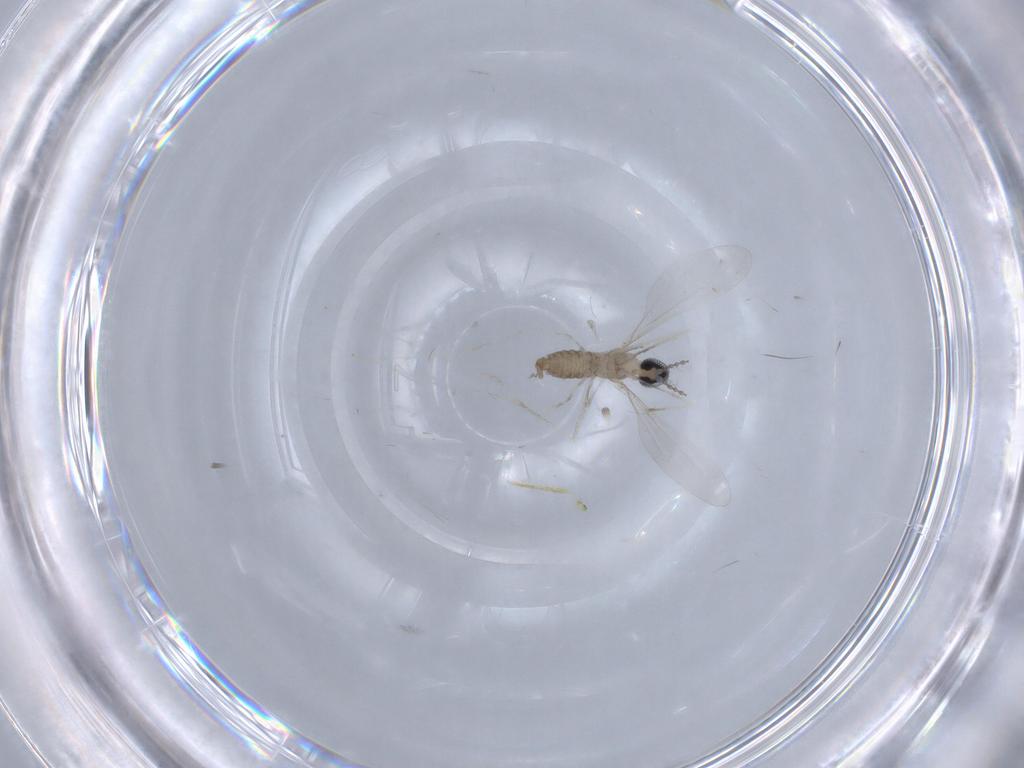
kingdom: Animalia
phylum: Arthropoda
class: Insecta
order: Diptera
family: Cecidomyiidae
